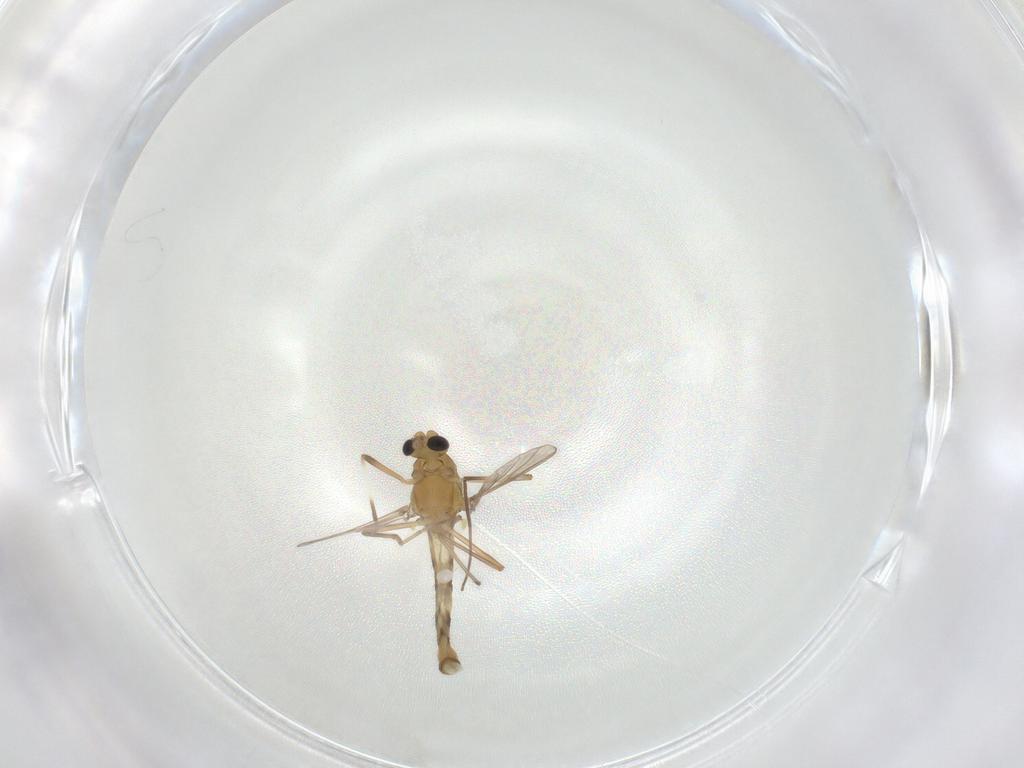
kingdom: Animalia
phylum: Arthropoda
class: Insecta
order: Diptera
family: Chironomidae
